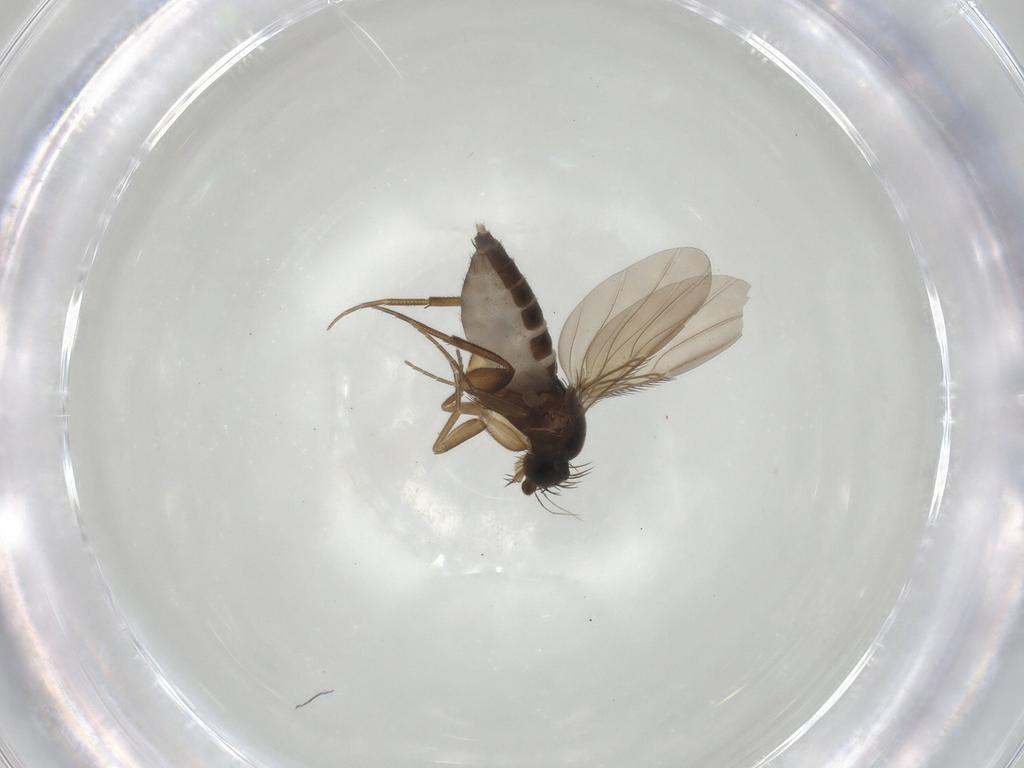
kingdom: Animalia
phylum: Arthropoda
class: Insecta
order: Diptera
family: Phoridae
